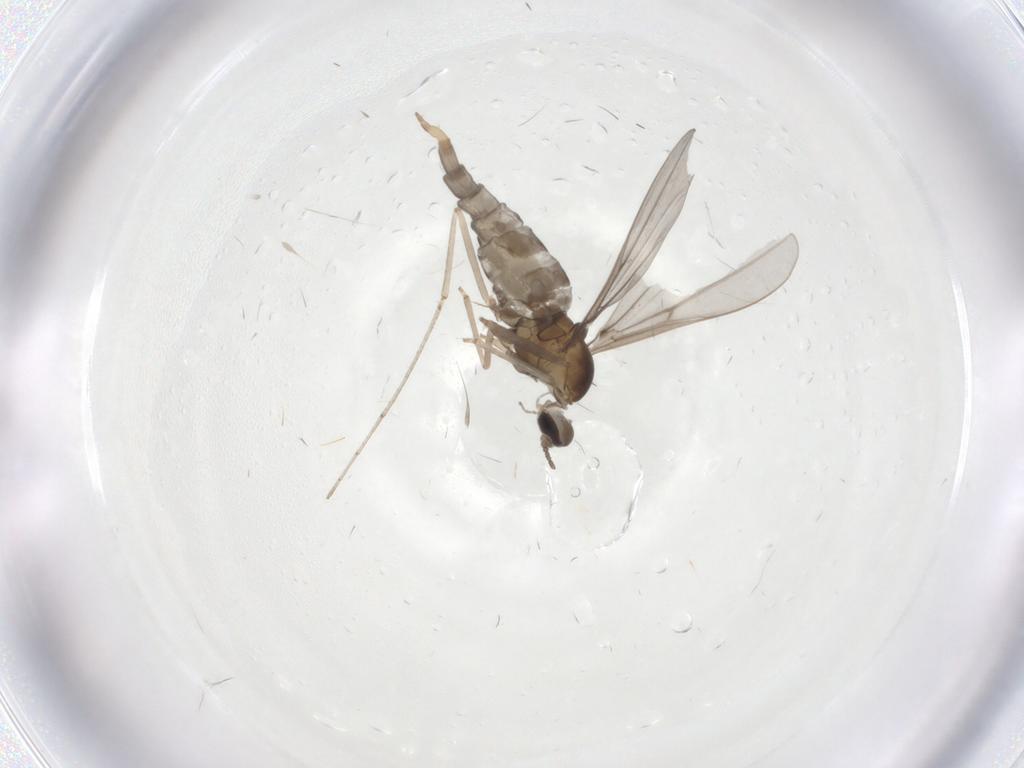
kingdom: Animalia
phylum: Arthropoda
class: Insecta
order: Diptera
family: Cecidomyiidae
